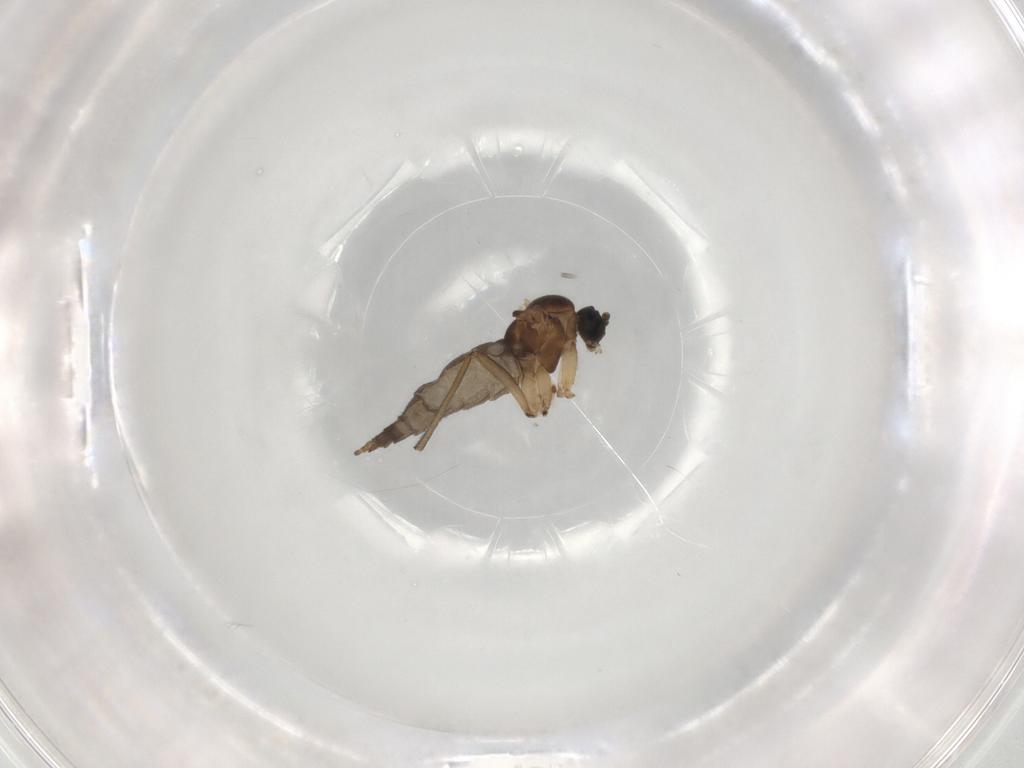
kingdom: Animalia
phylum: Arthropoda
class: Insecta
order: Diptera
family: Sciaridae
